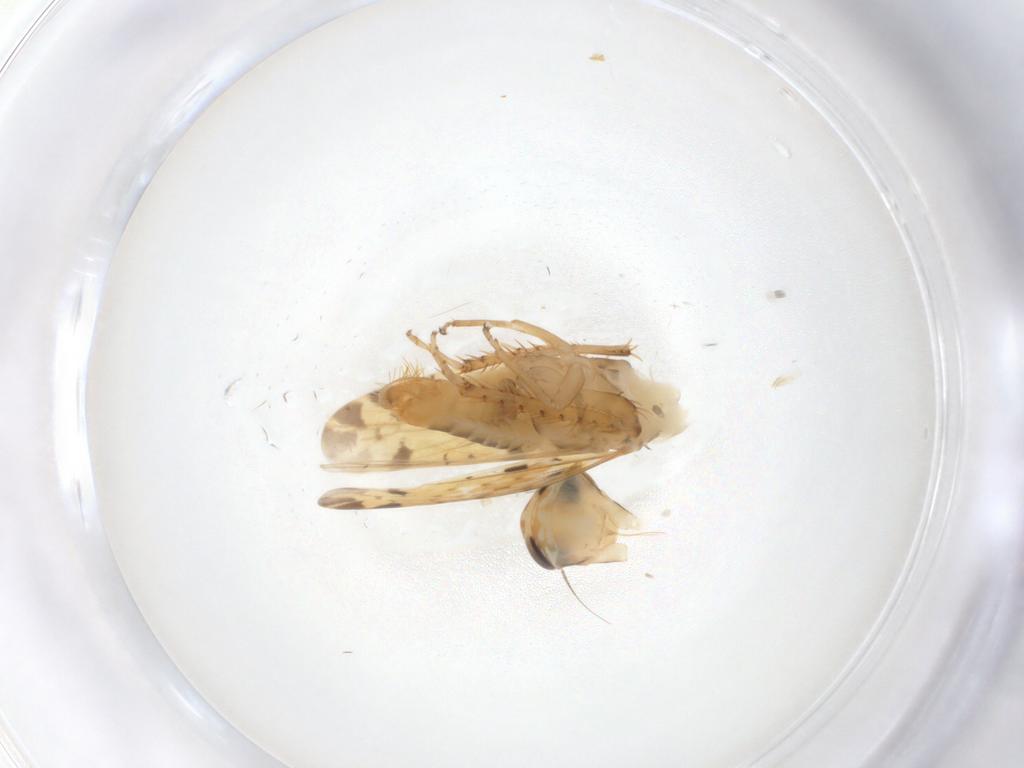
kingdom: Animalia
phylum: Arthropoda
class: Insecta
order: Hemiptera
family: Cicadellidae
